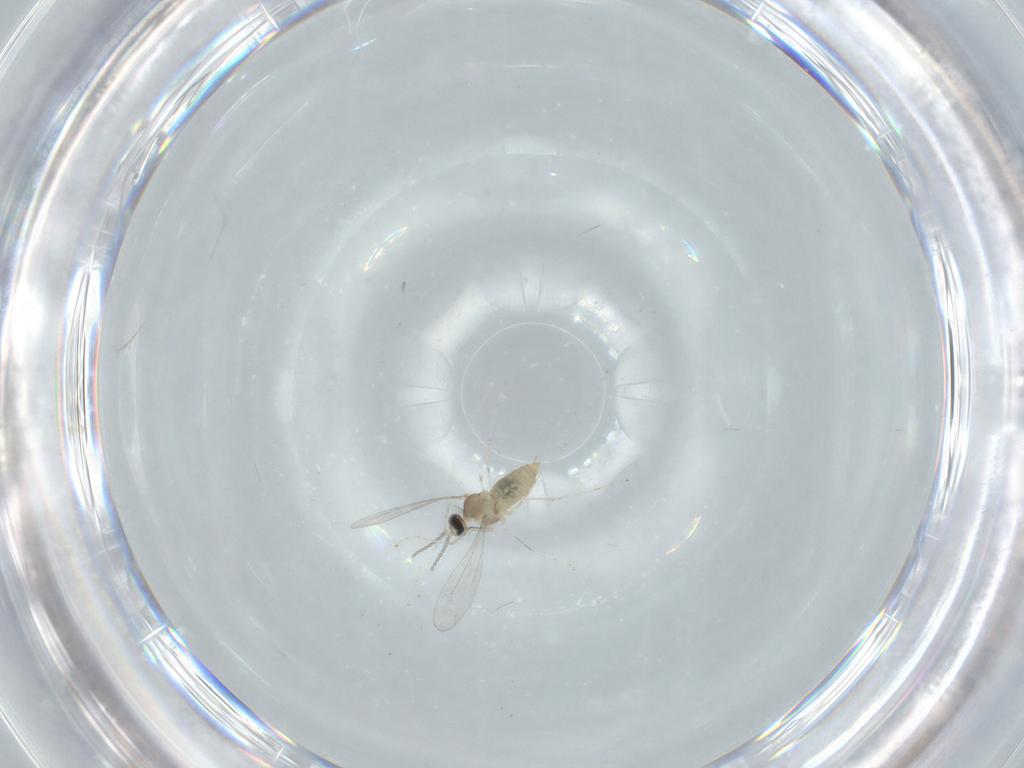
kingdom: Animalia
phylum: Arthropoda
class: Insecta
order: Diptera
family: Cecidomyiidae
